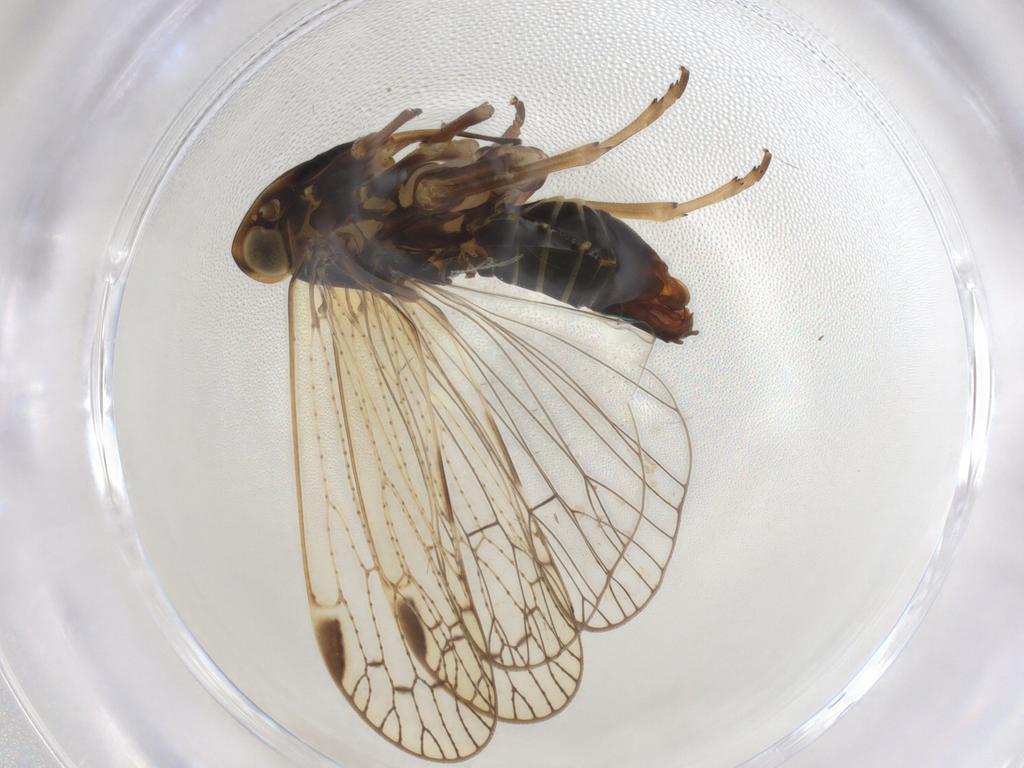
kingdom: Animalia
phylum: Arthropoda
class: Insecta
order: Hemiptera
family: Cixiidae
